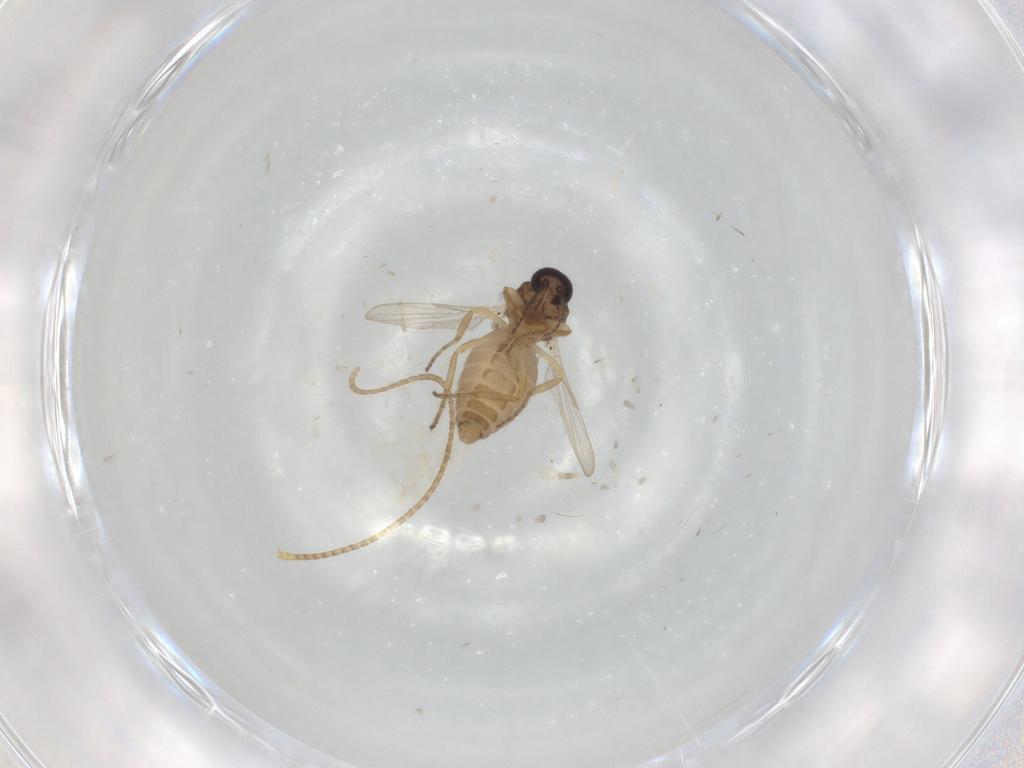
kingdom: Animalia
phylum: Arthropoda
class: Insecta
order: Diptera
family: Ceratopogonidae
